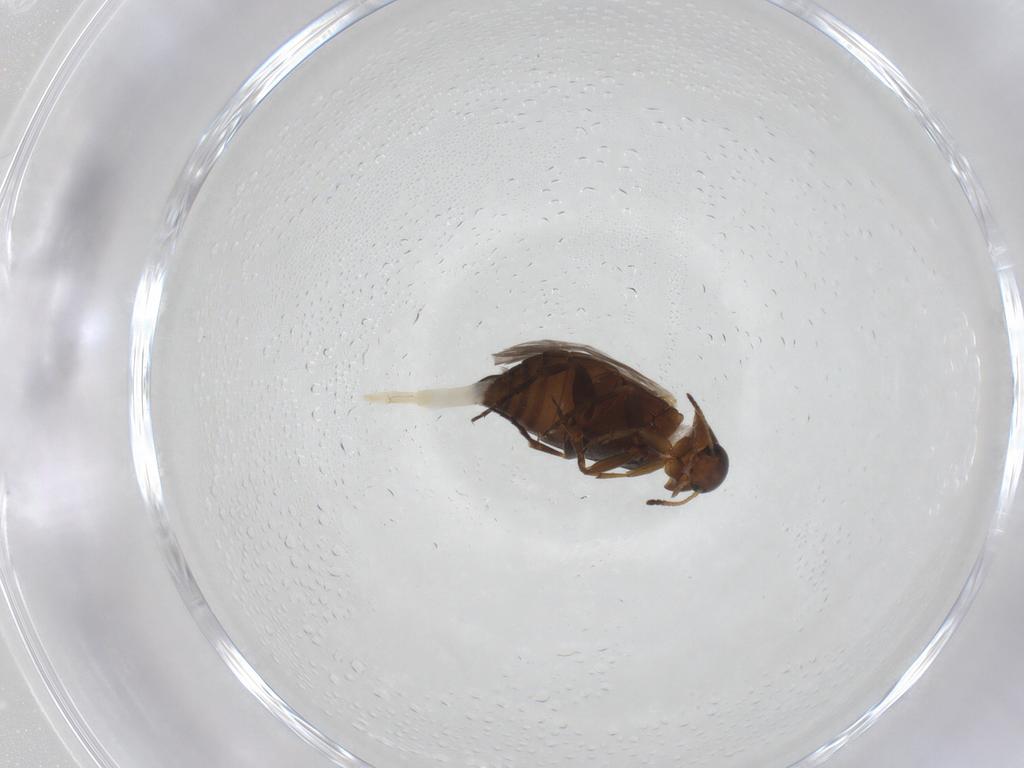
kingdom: Animalia
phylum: Arthropoda
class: Insecta
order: Coleoptera
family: Scraptiidae
